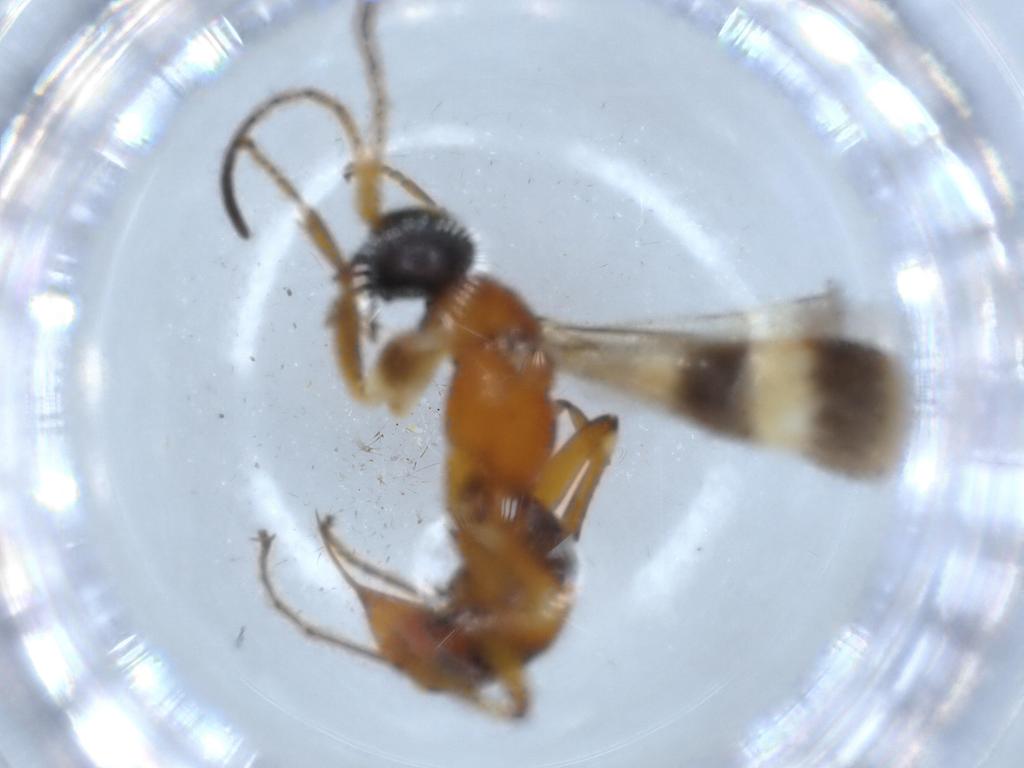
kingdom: Animalia
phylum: Arthropoda
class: Insecta
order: Hymenoptera
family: Pompilidae
